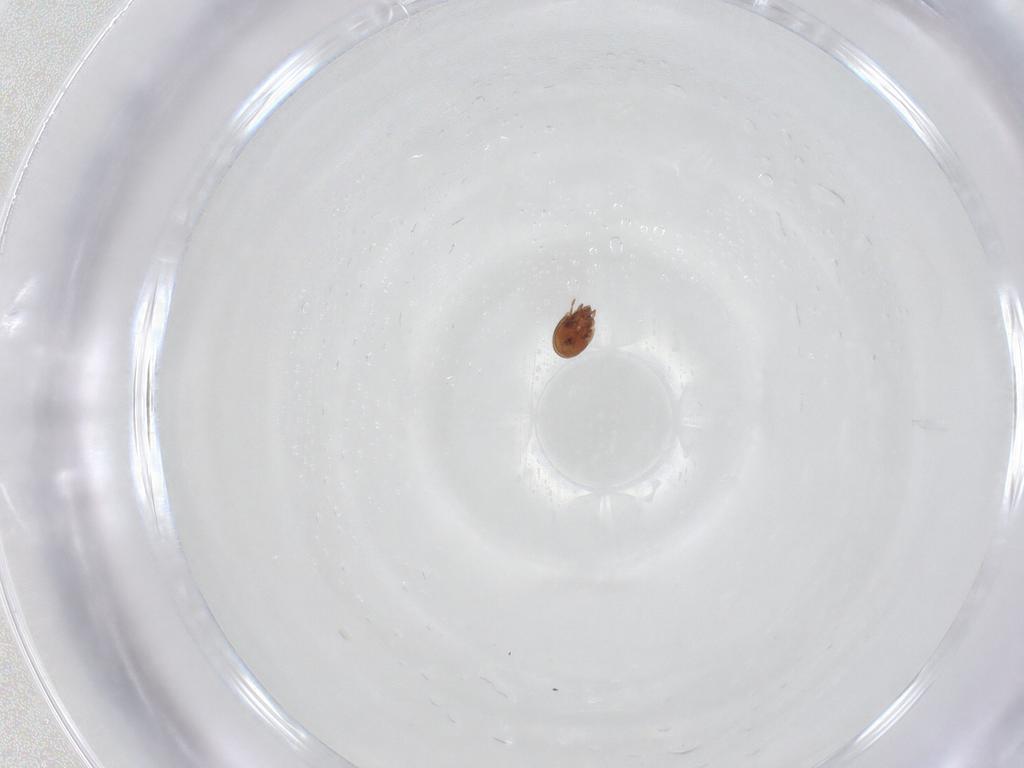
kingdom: Animalia
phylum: Arthropoda
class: Arachnida
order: Sarcoptiformes
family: Scheloribatidae
